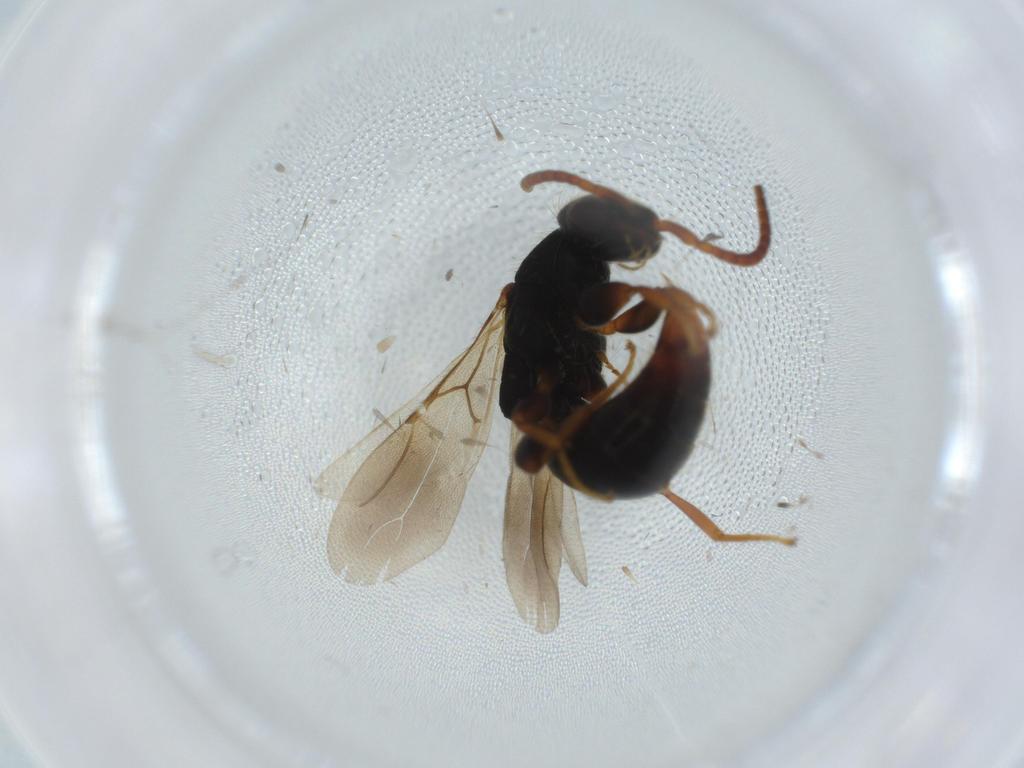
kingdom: Animalia
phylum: Arthropoda
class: Insecta
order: Hymenoptera
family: Bethylidae
